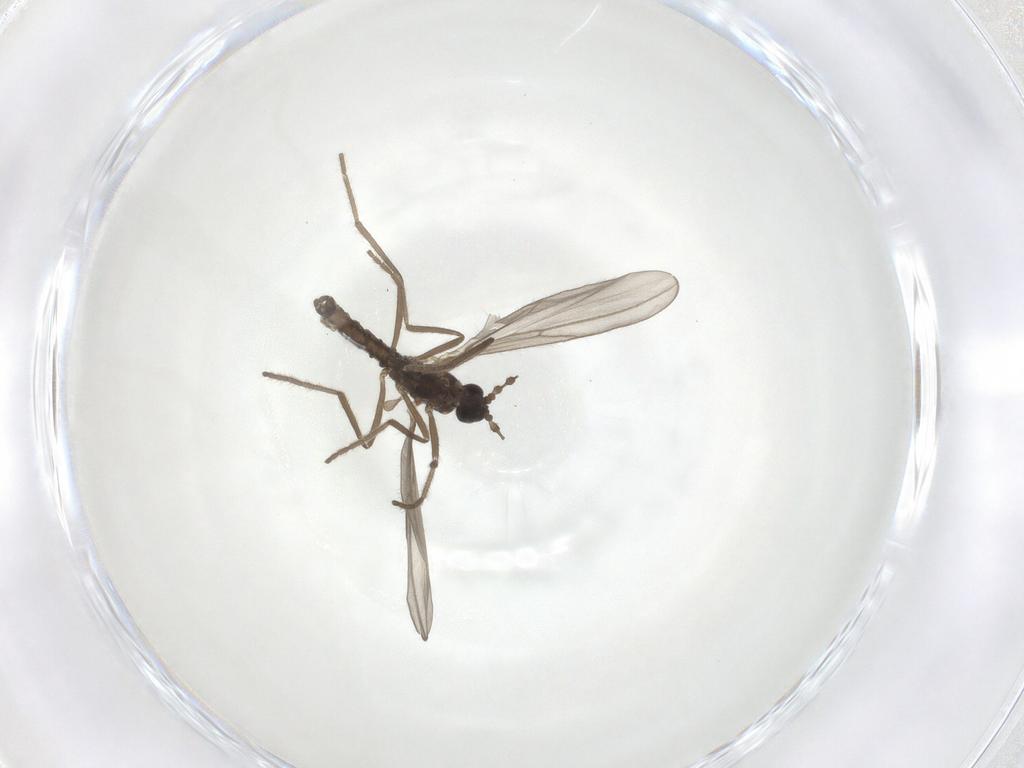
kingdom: Animalia
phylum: Arthropoda
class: Insecta
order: Diptera
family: Cecidomyiidae
